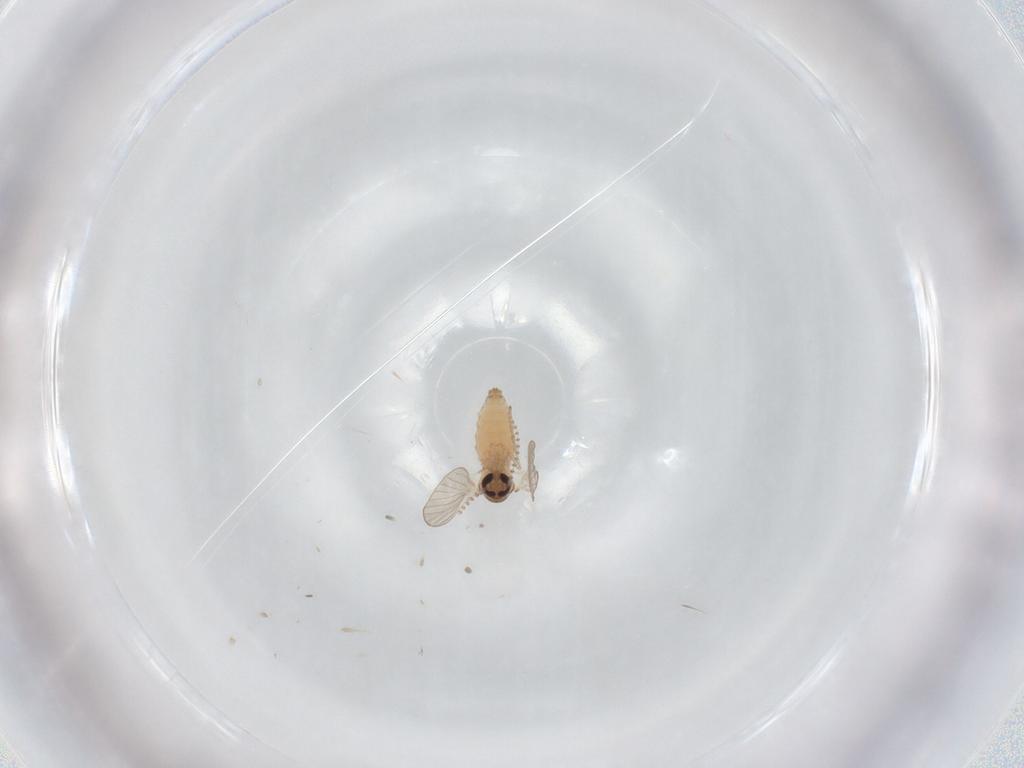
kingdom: Animalia
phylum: Arthropoda
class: Insecta
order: Diptera
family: Psychodidae
